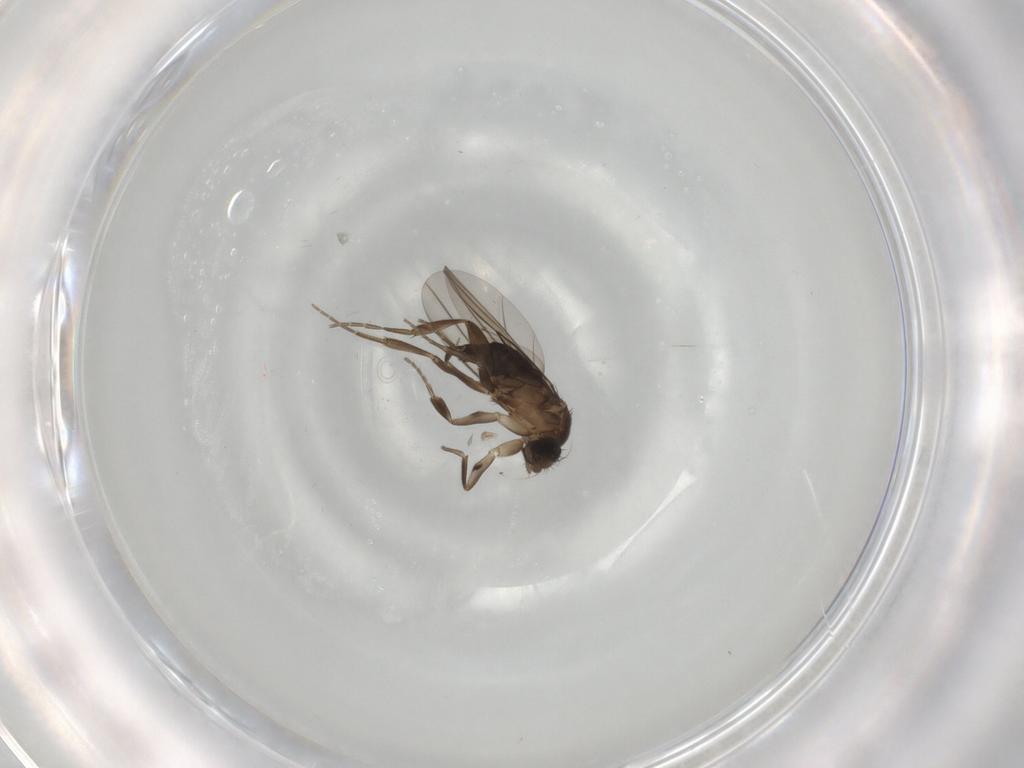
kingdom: Animalia
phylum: Arthropoda
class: Insecta
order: Diptera
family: Phoridae
